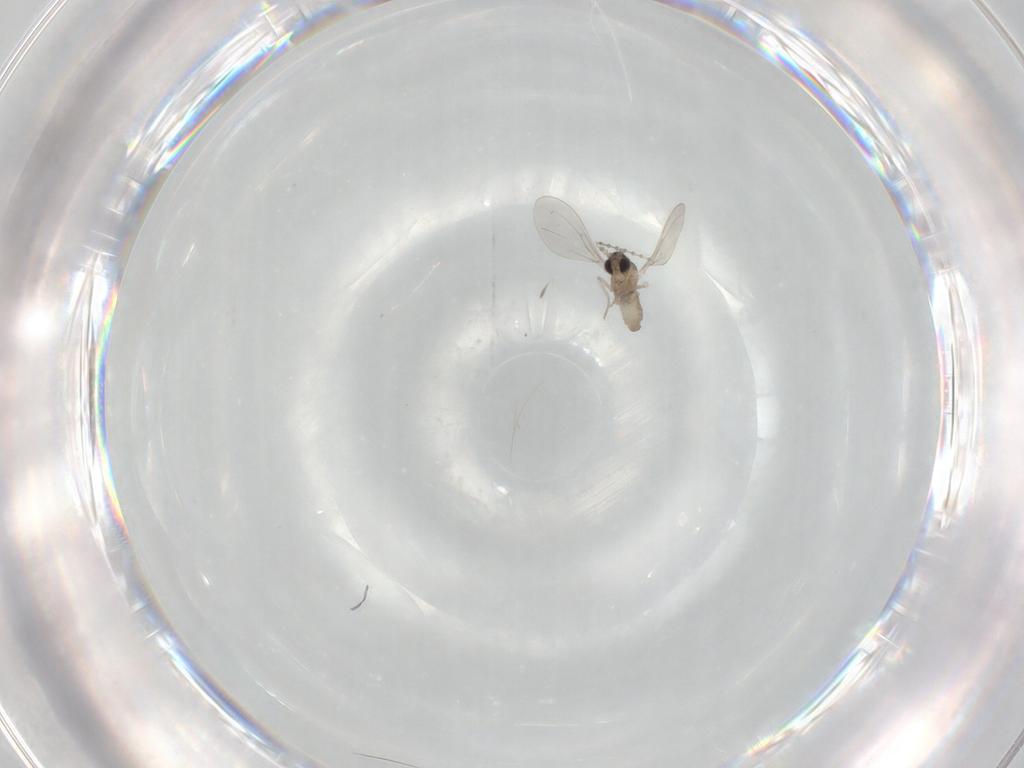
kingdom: Animalia
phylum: Arthropoda
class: Insecta
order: Diptera
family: Cecidomyiidae
